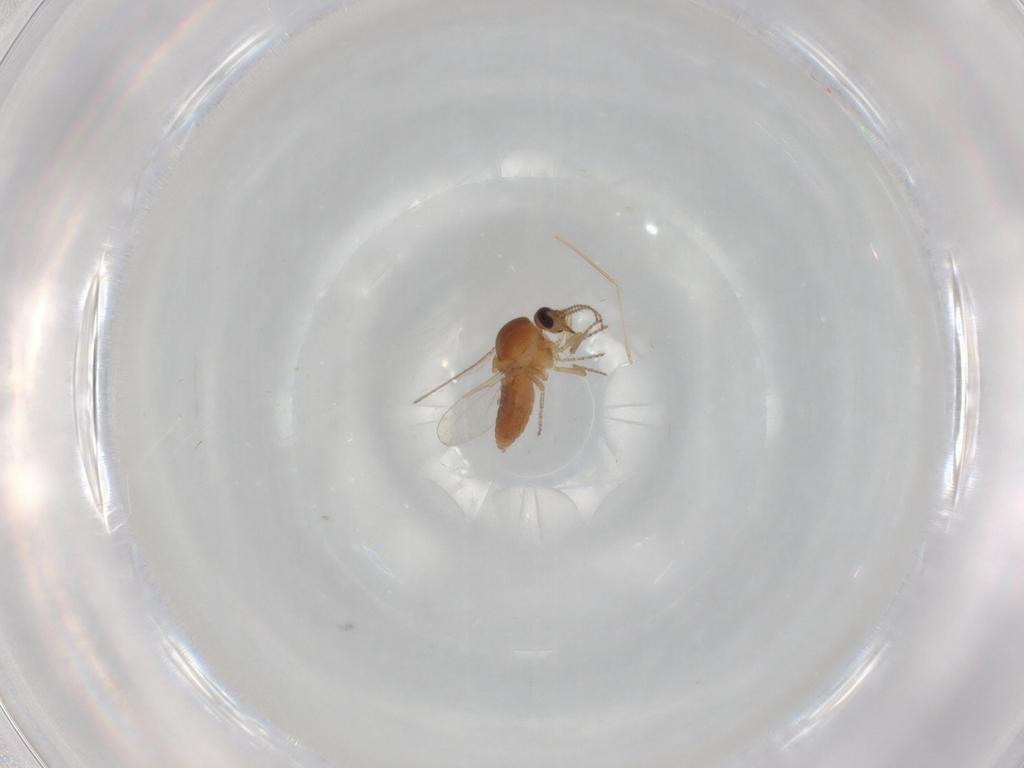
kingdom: Animalia
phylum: Arthropoda
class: Insecta
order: Diptera
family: Ceratopogonidae
